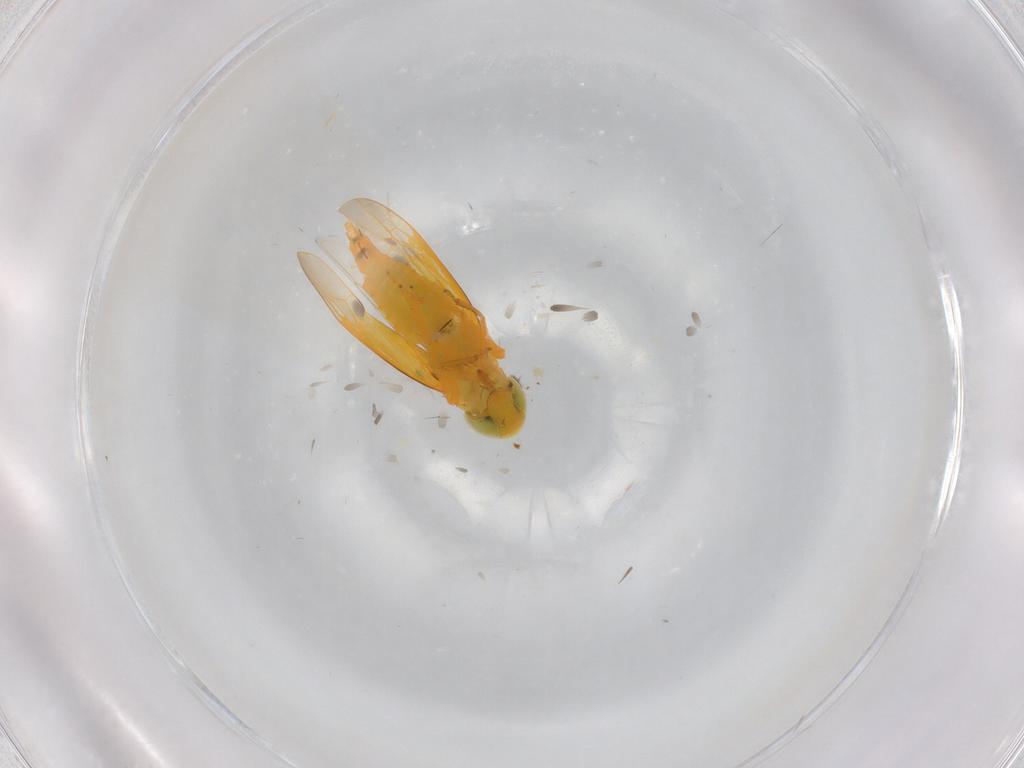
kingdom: Animalia
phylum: Arthropoda
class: Insecta
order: Hemiptera
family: Cicadellidae
